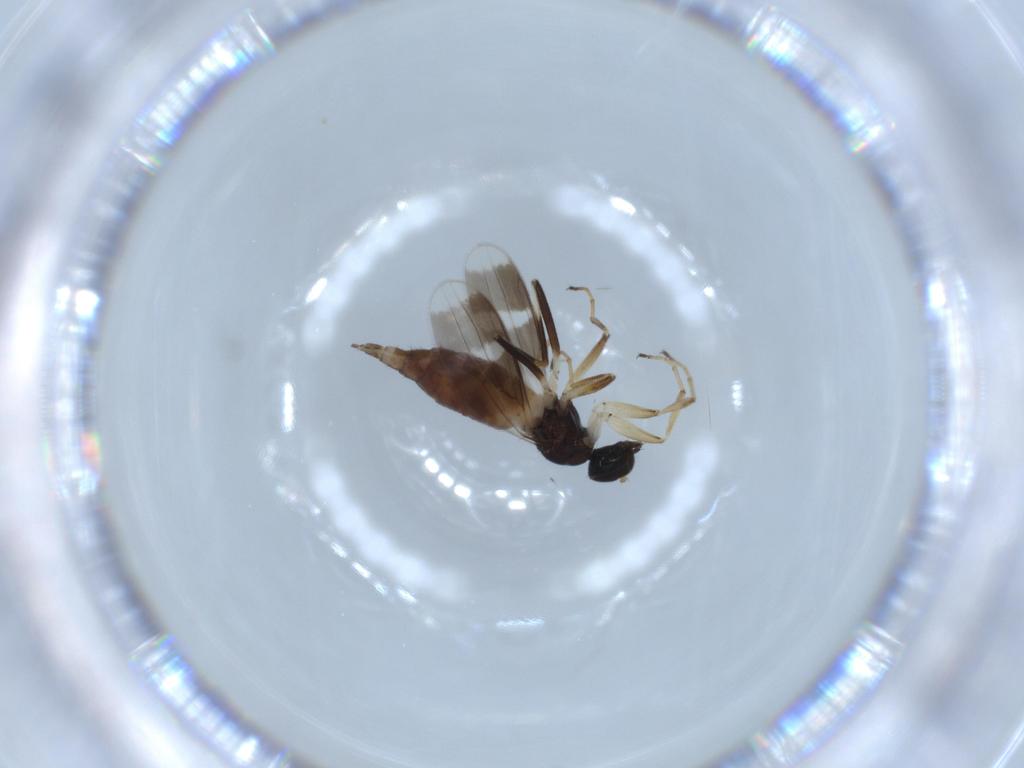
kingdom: Animalia
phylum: Arthropoda
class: Insecta
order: Diptera
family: Hybotidae
